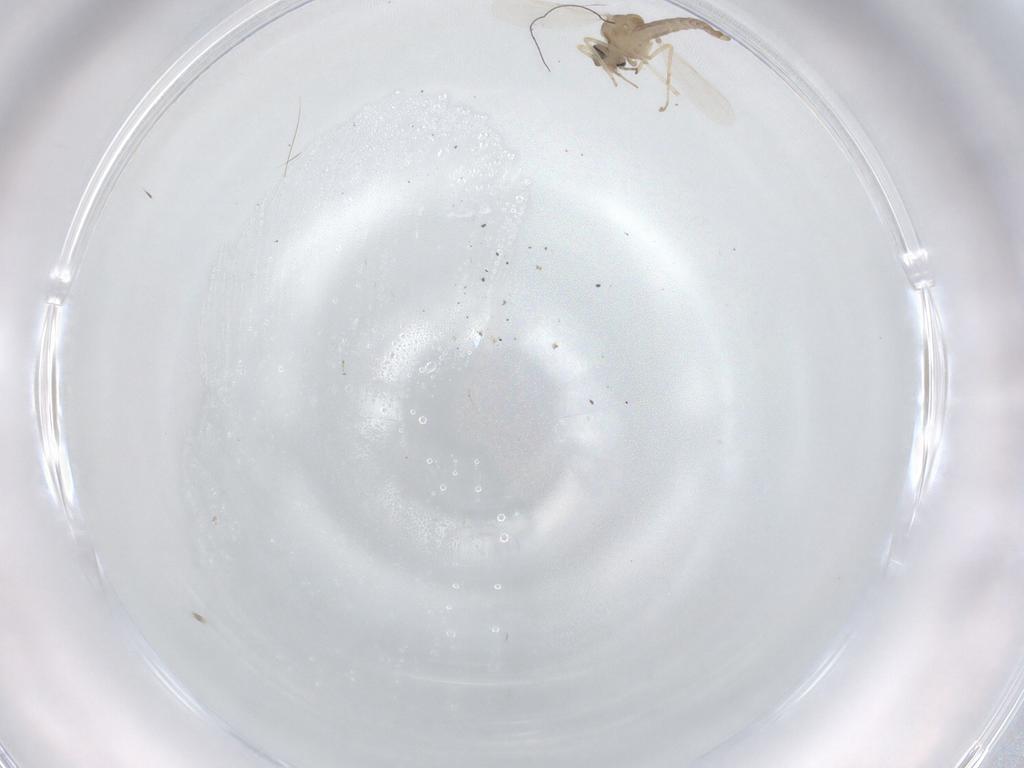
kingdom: Animalia
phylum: Arthropoda
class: Insecta
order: Diptera
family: Ceratopogonidae
